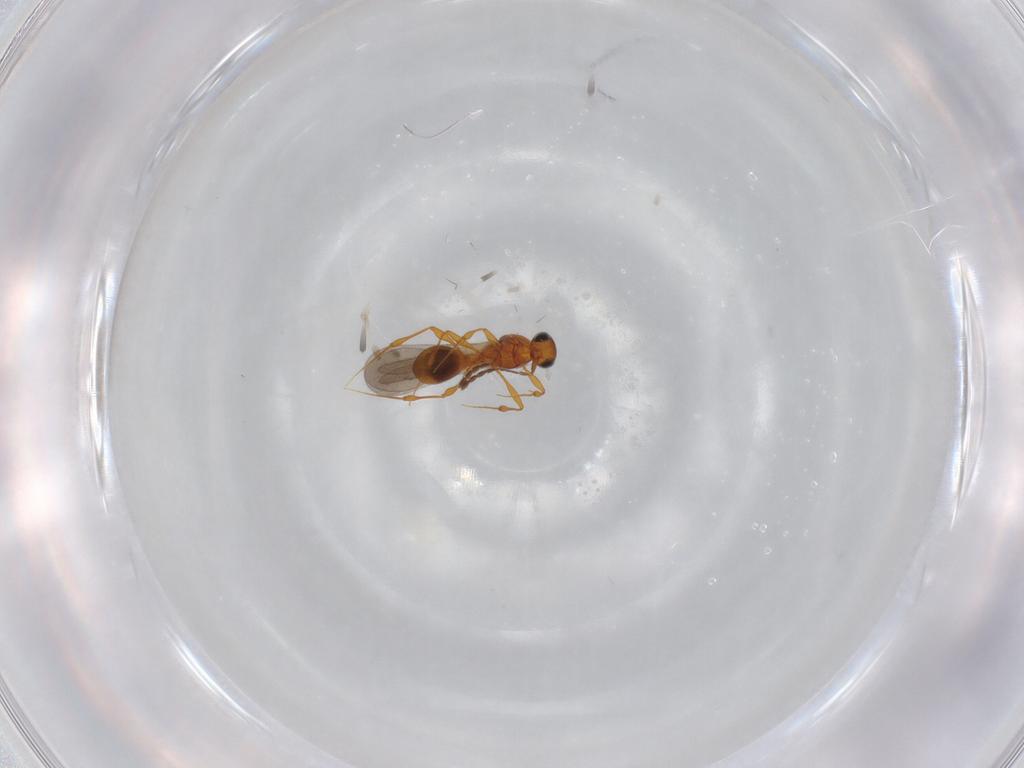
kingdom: Animalia
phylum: Arthropoda
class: Insecta
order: Hymenoptera
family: Platygastridae
